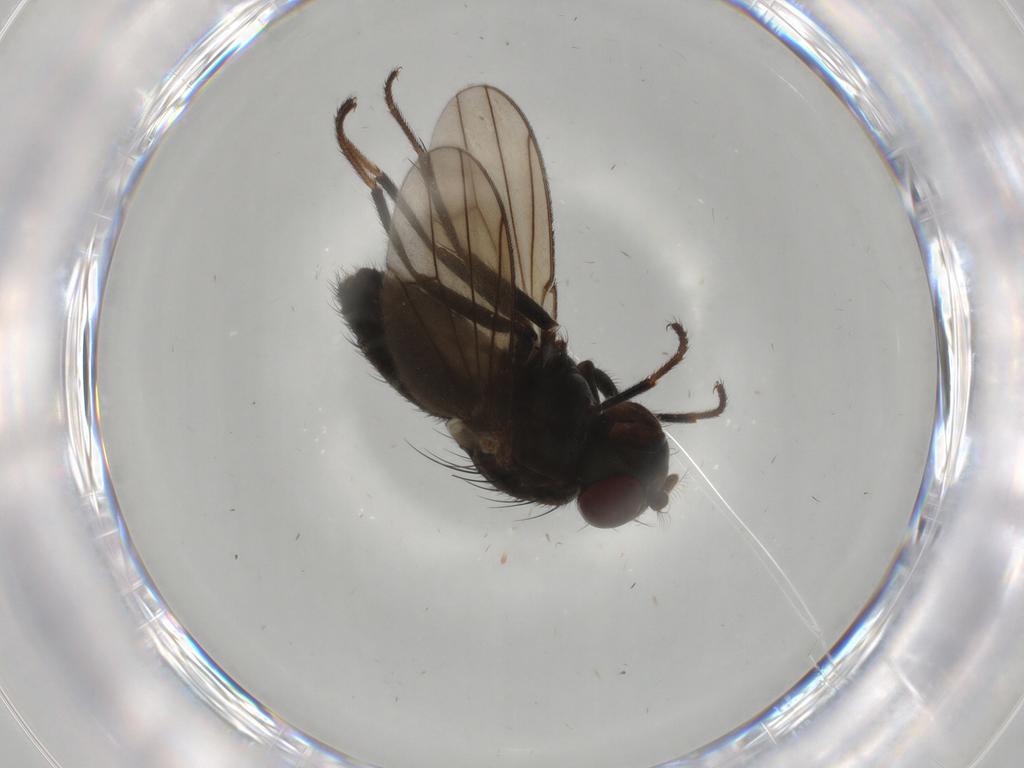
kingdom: Animalia
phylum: Arthropoda
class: Insecta
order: Diptera
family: Ephydridae
